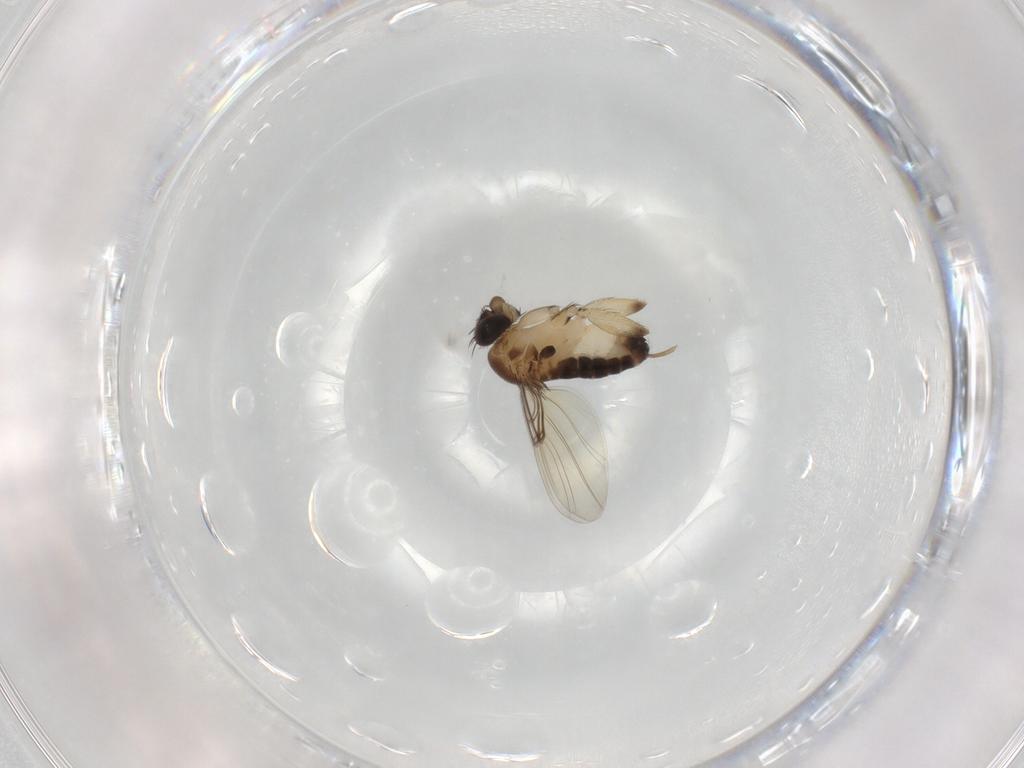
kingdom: Animalia
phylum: Arthropoda
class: Insecta
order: Diptera
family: Phoridae
